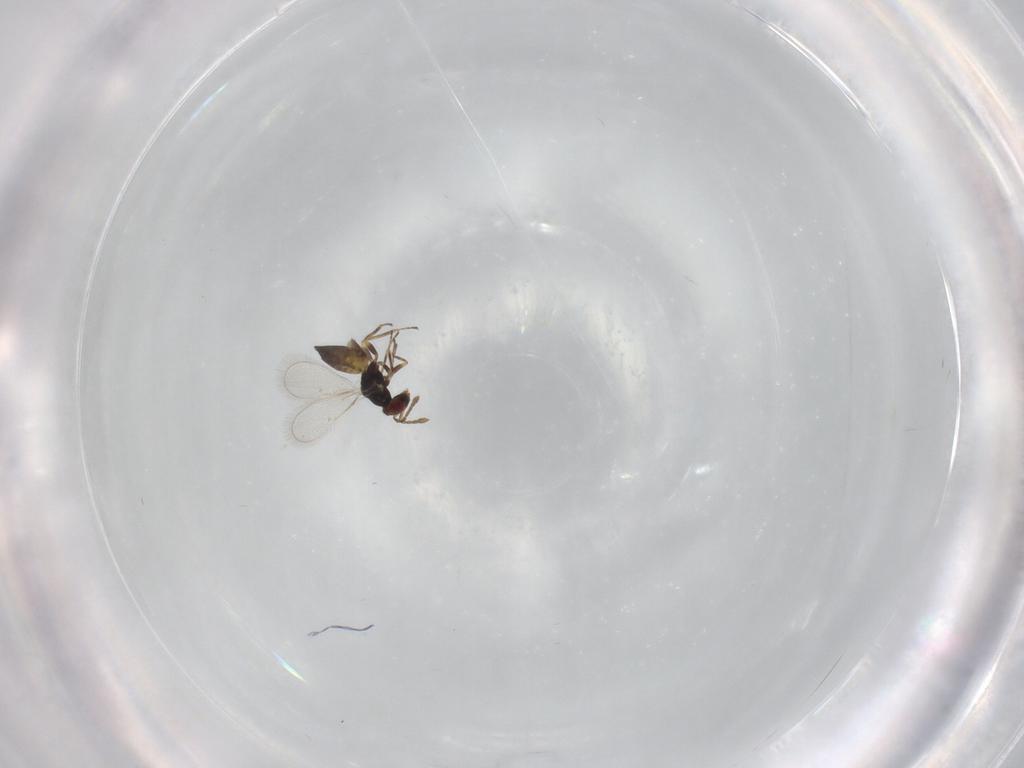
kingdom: Animalia
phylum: Arthropoda
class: Insecta
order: Hymenoptera
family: Eulophidae
